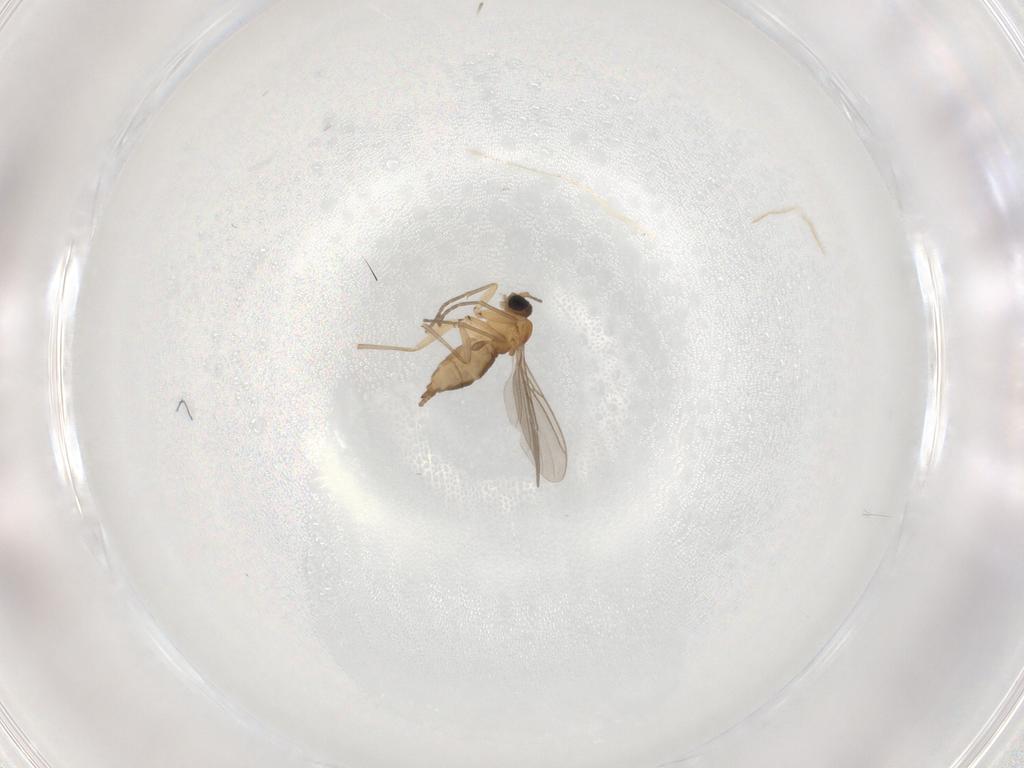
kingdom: Animalia
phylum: Arthropoda
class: Insecta
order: Diptera
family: Sciaridae
